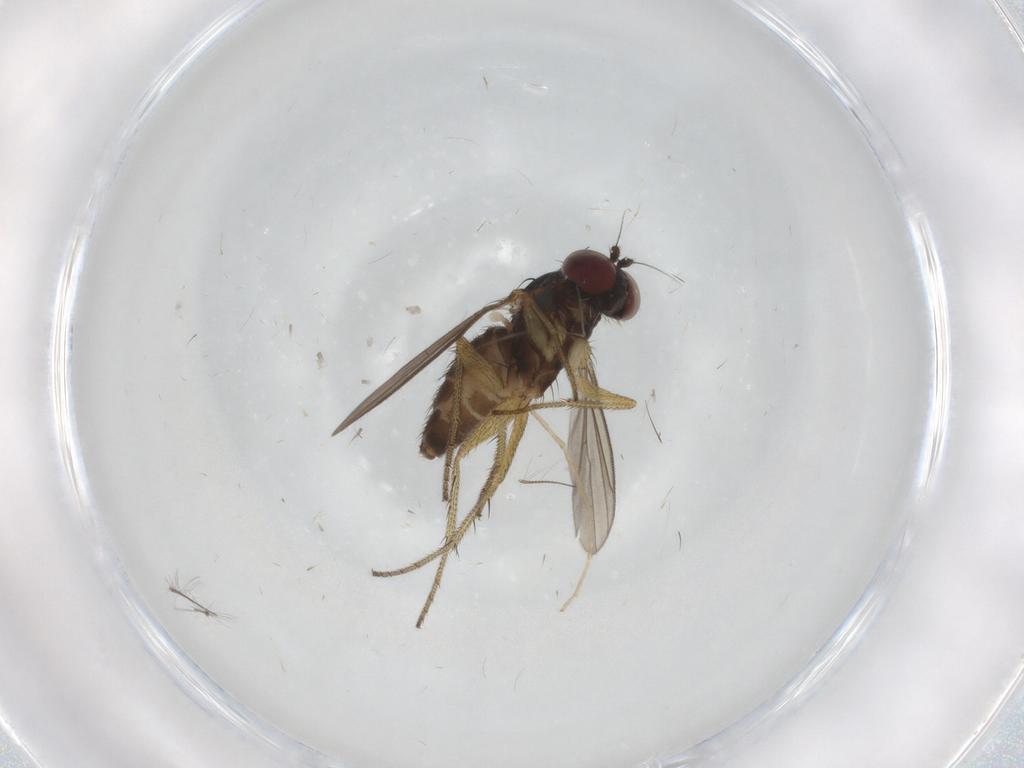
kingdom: Animalia
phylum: Arthropoda
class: Insecta
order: Diptera
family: Dolichopodidae
